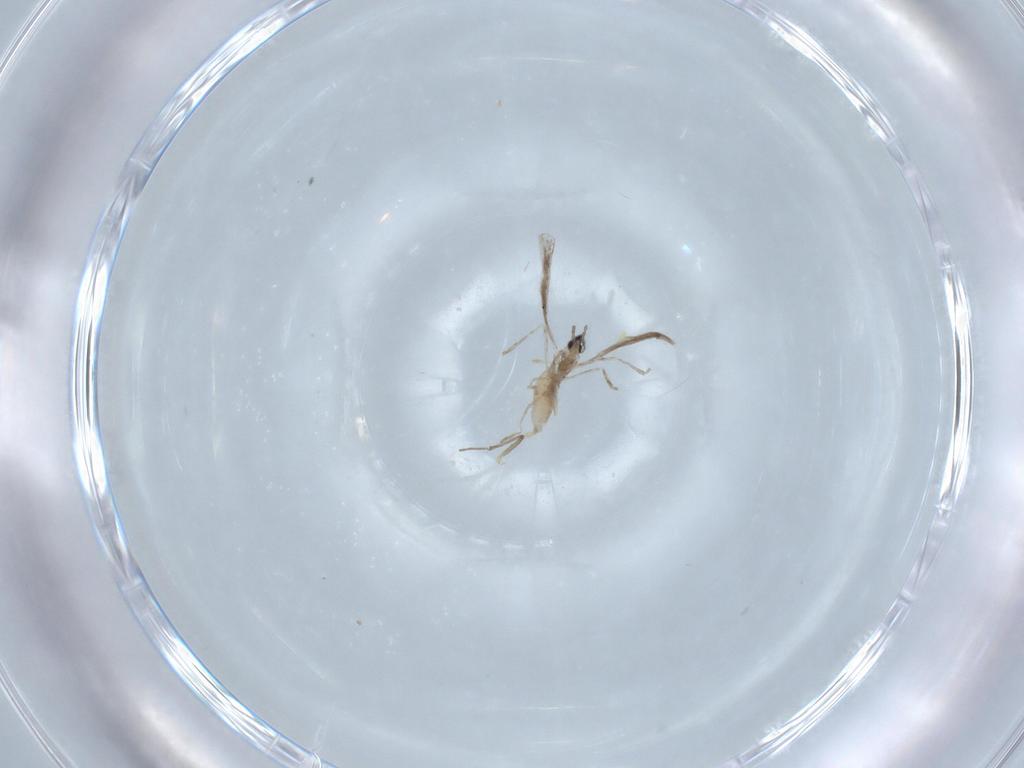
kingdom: Animalia
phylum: Arthropoda
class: Insecta
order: Diptera
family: Chironomidae
